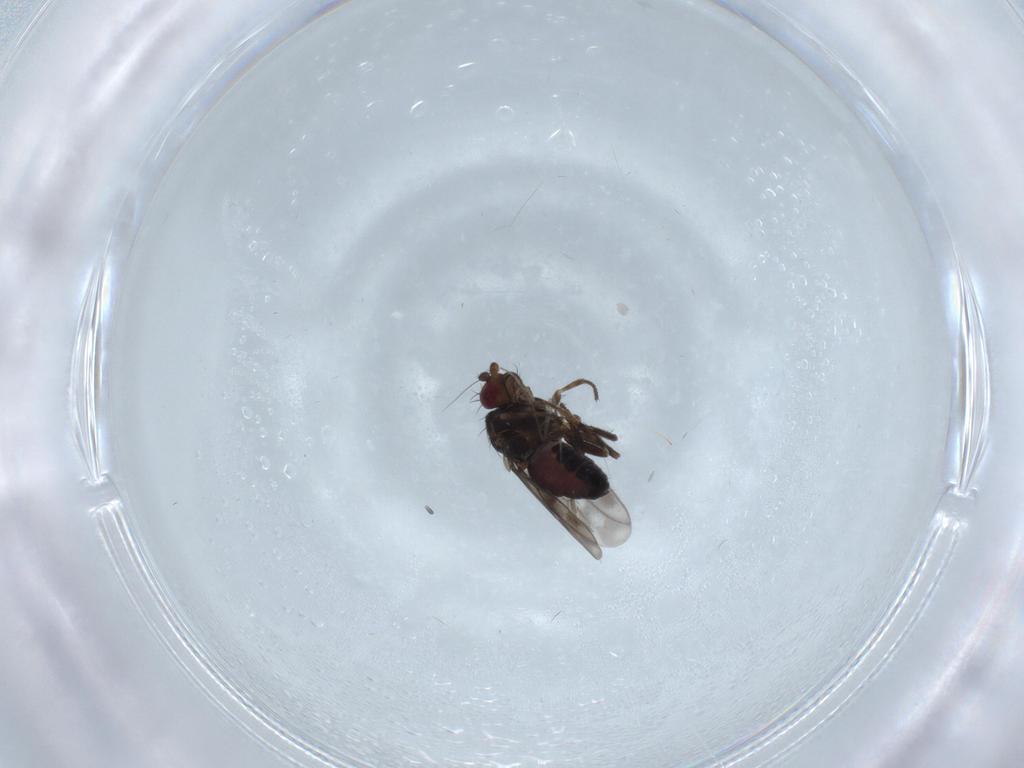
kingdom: Animalia
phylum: Arthropoda
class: Insecta
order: Diptera
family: Sphaeroceridae
